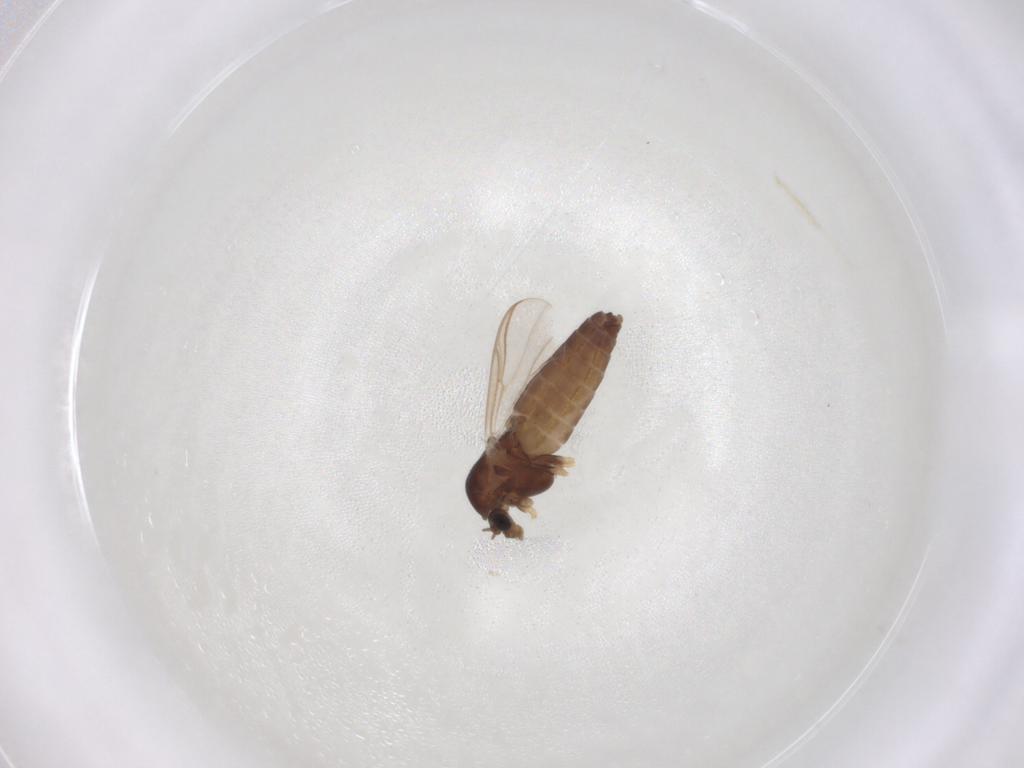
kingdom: Animalia
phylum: Arthropoda
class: Insecta
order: Diptera
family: Chironomidae
